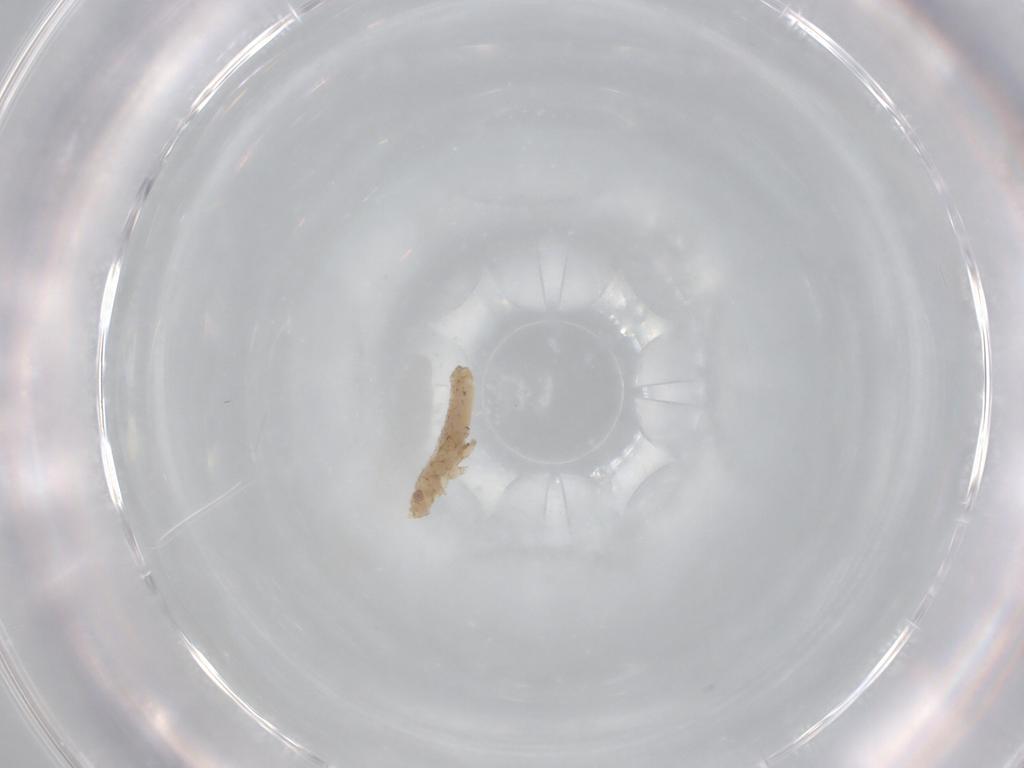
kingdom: Animalia
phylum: Arthropoda
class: Insecta
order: Hemiptera
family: Aphididae
